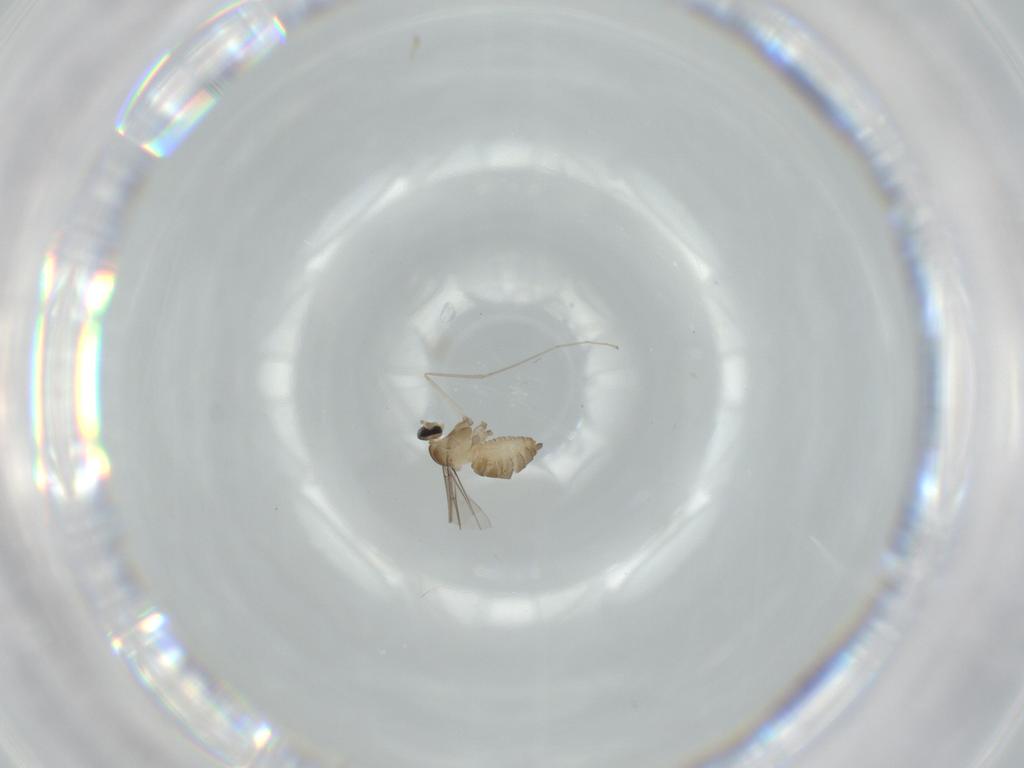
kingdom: Animalia
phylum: Arthropoda
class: Insecta
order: Diptera
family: Cecidomyiidae
